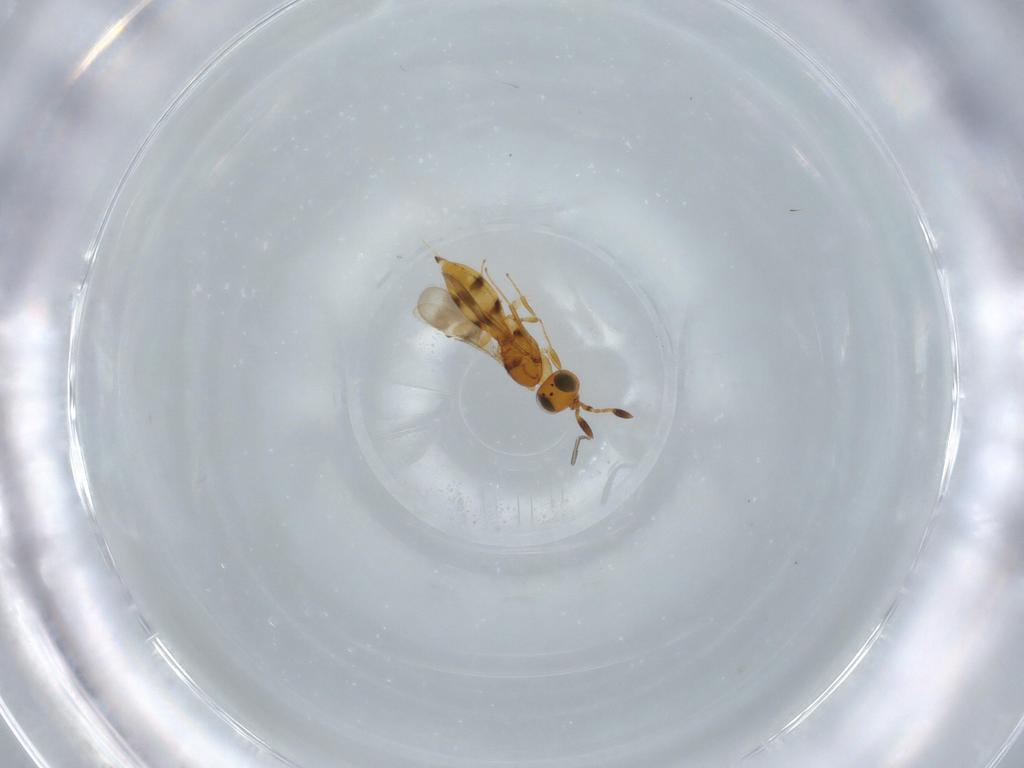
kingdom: Animalia
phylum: Arthropoda
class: Insecta
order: Hymenoptera
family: Scelionidae
